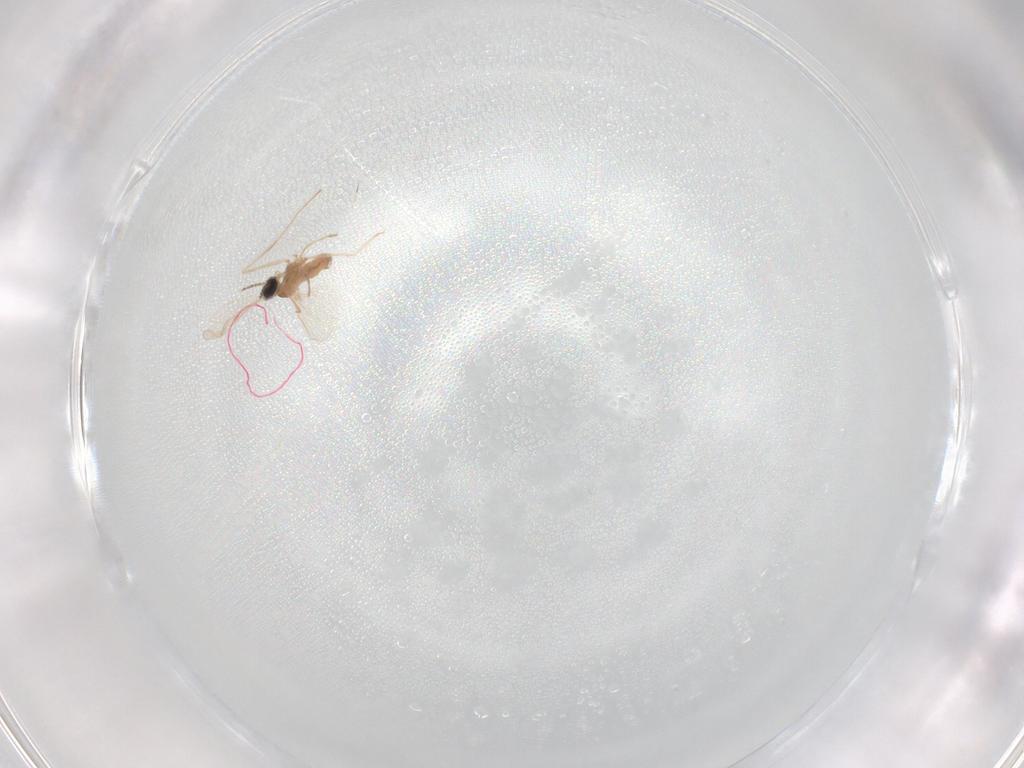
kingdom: Animalia
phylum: Arthropoda
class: Insecta
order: Diptera
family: Cecidomyiidae
